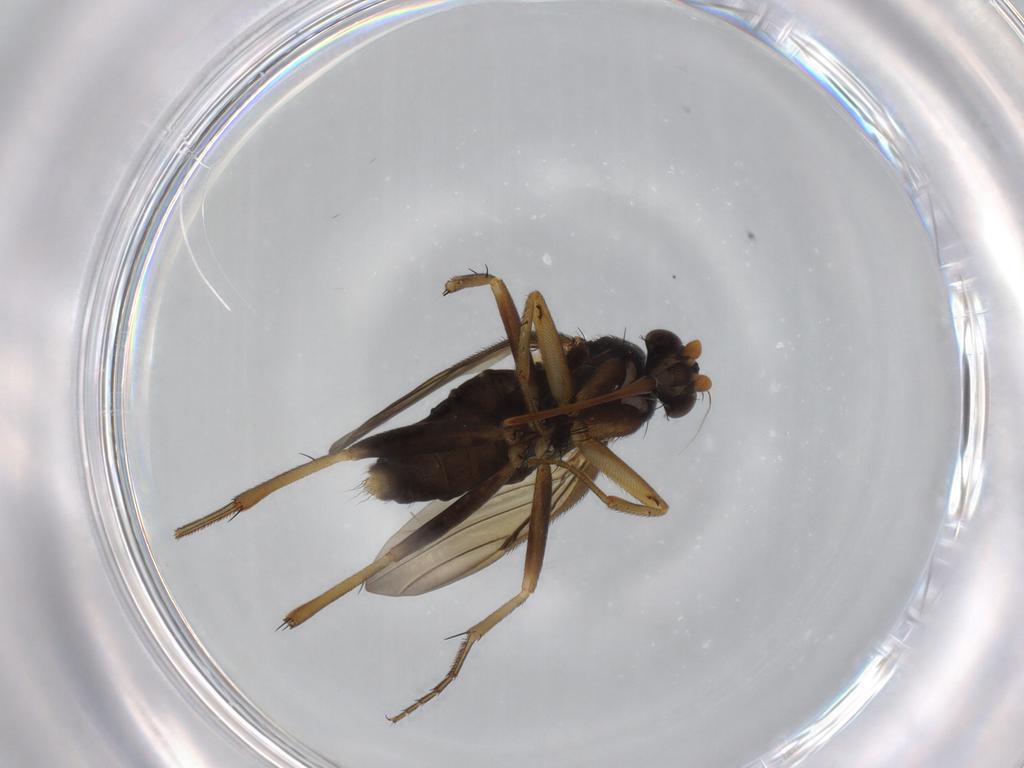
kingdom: Animalia
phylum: Arthropoda
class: Insecta
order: Diptera
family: Phoridae
